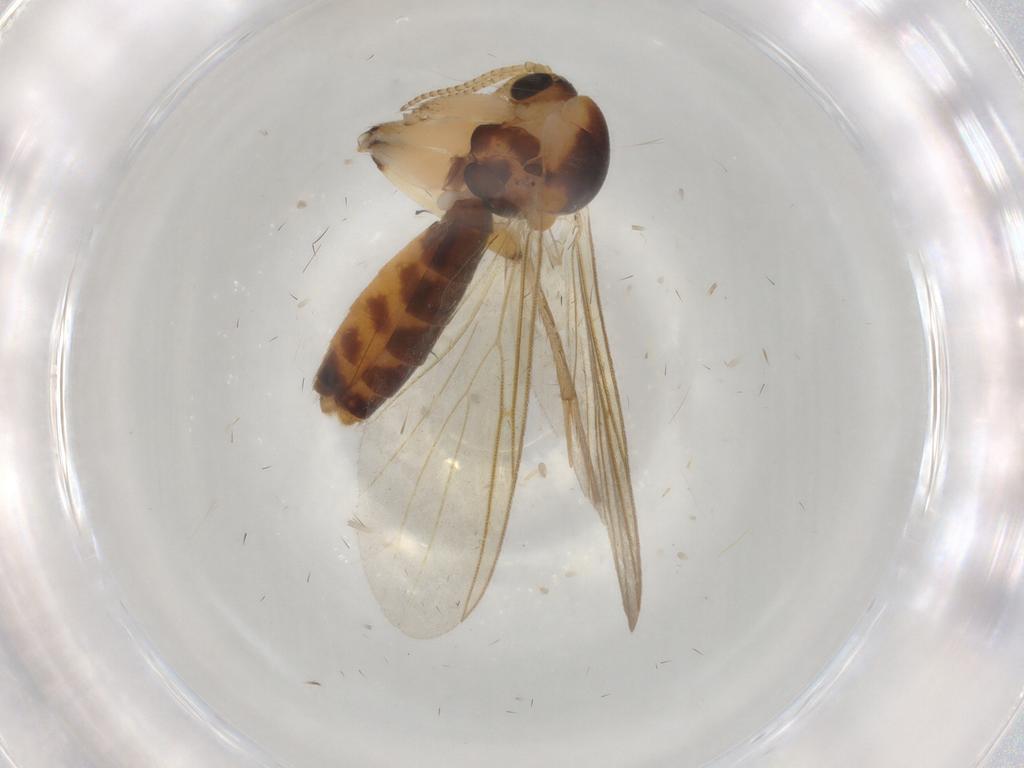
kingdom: Animalia
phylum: Arthropoda
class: Insecta
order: Diptera
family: Mycetophilidae
